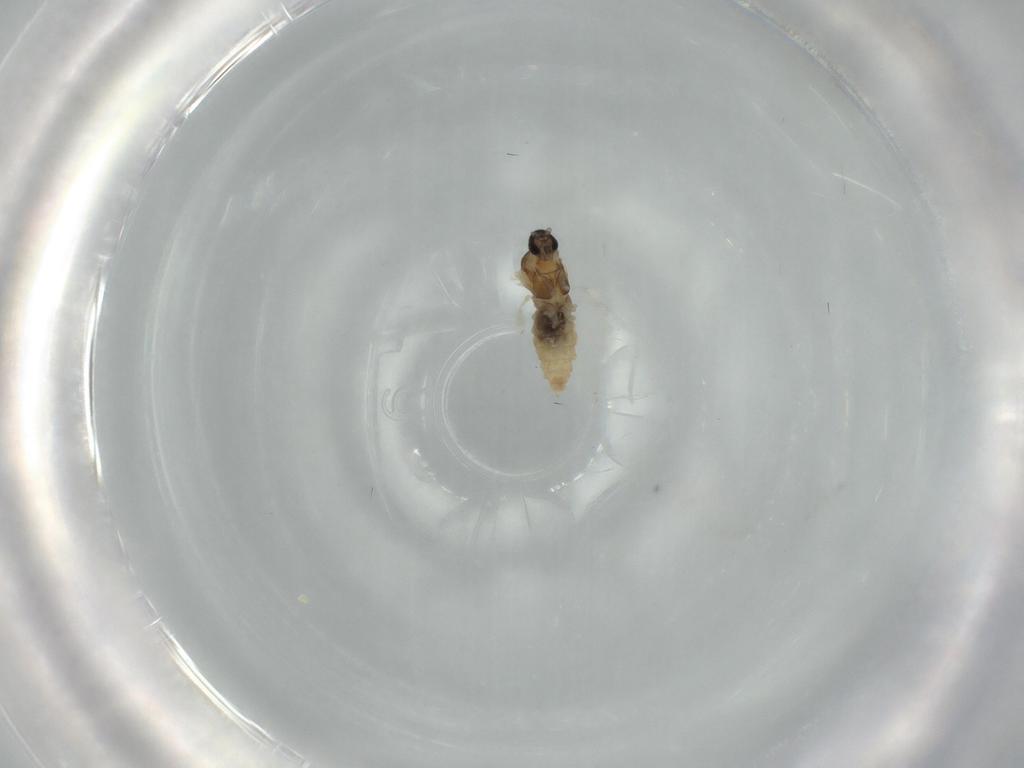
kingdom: Animalia
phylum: Arthropoda
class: Insecta
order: Diptera
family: Cecidomyiidae
